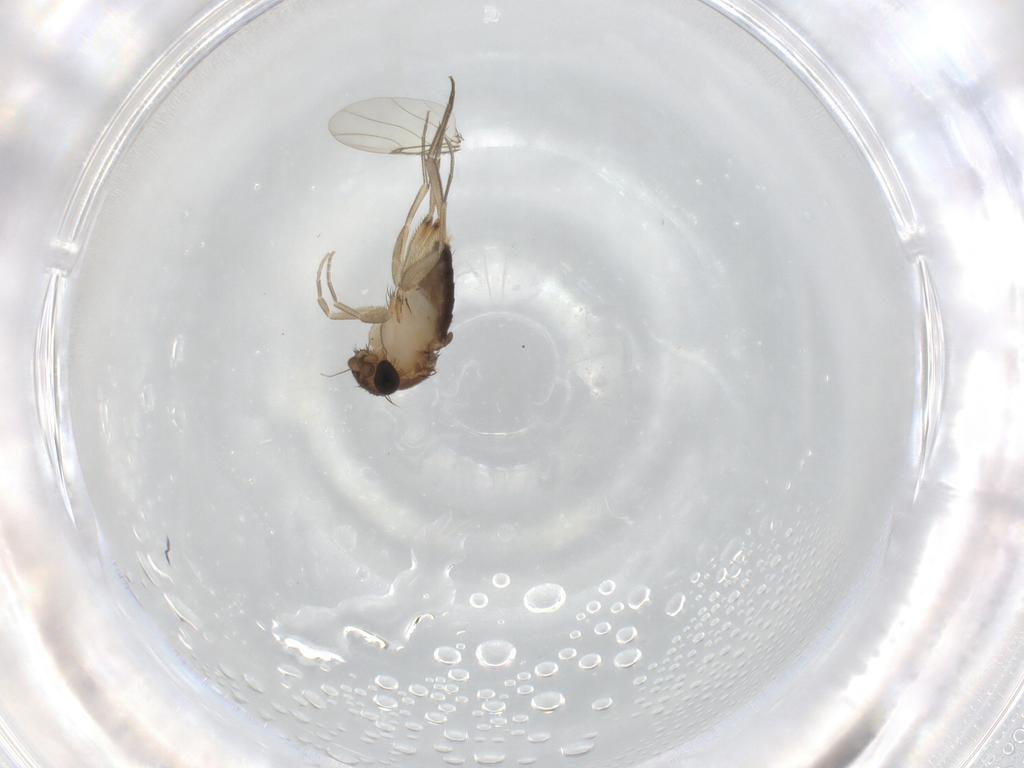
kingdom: Animalia
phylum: Arthropoda
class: Insecta
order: Diptera
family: Phoridae
